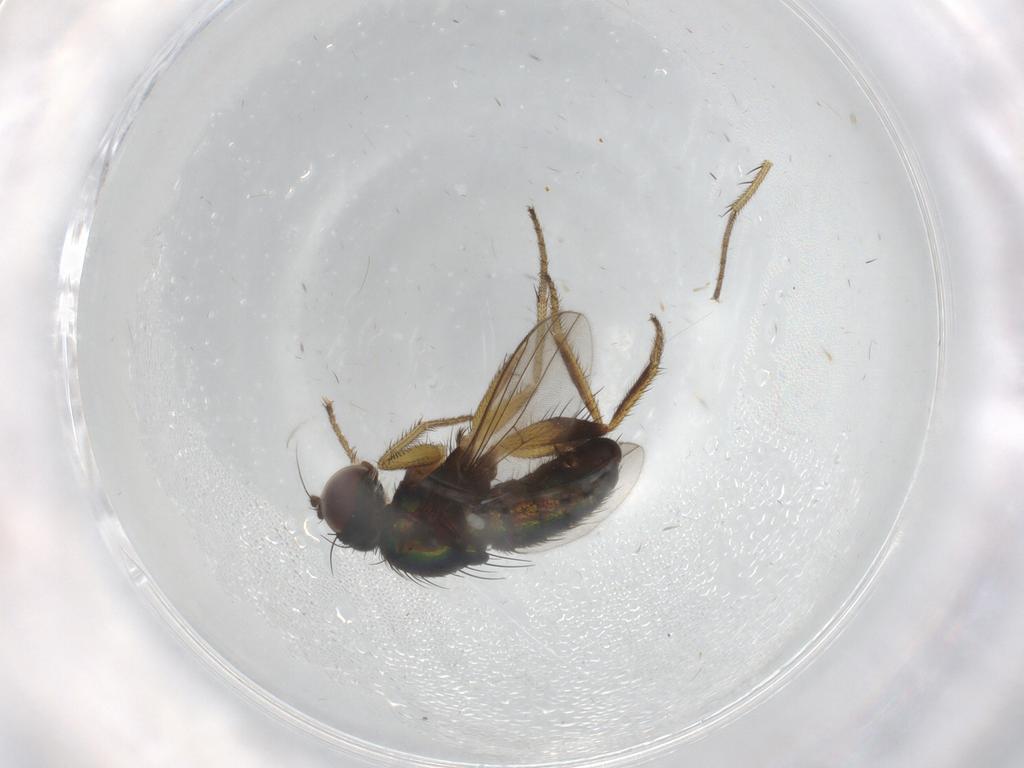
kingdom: Animalia
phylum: Arthropoda
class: Insecta
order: Diptera
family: Dolichopodidae
